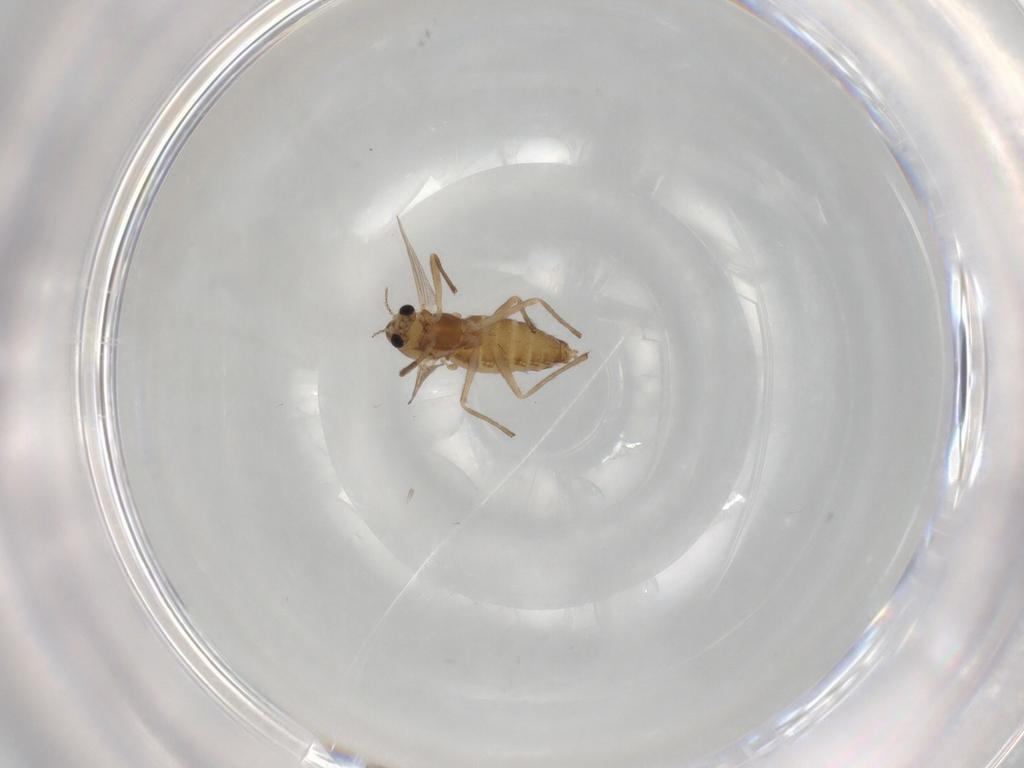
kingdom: Animalia
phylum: Arthropoda
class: Insecta
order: Diptera
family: Chironomidae
